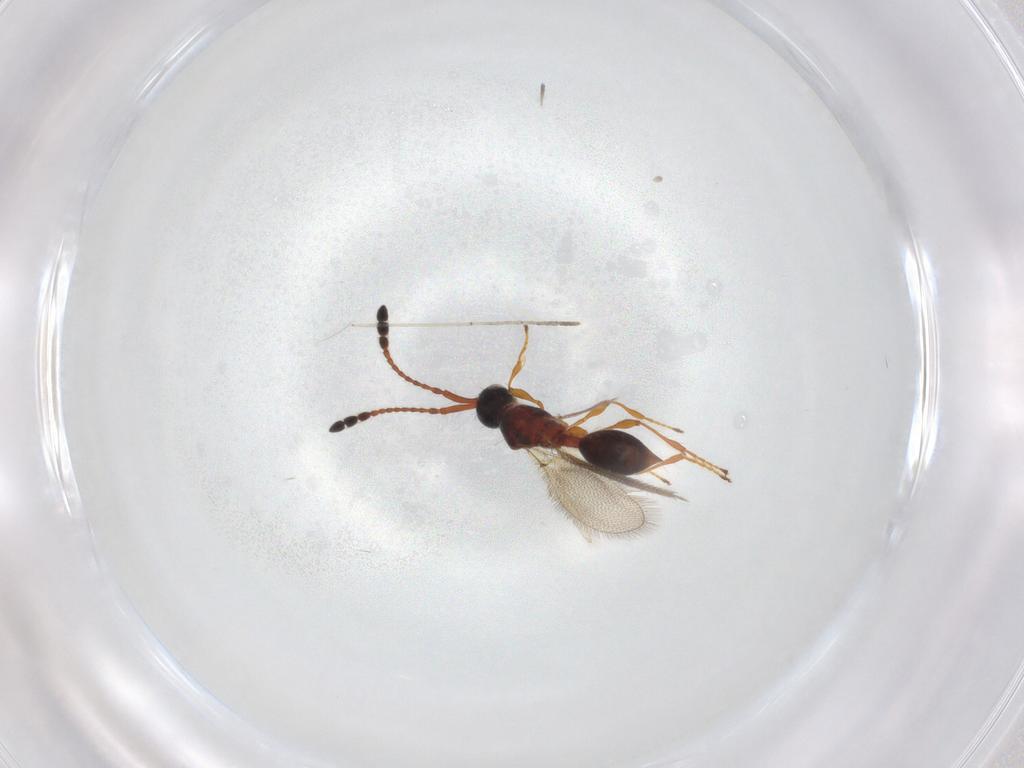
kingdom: Animalia
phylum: Arthropoda
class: Insecta
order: Hymenoptera
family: Diapriidae
